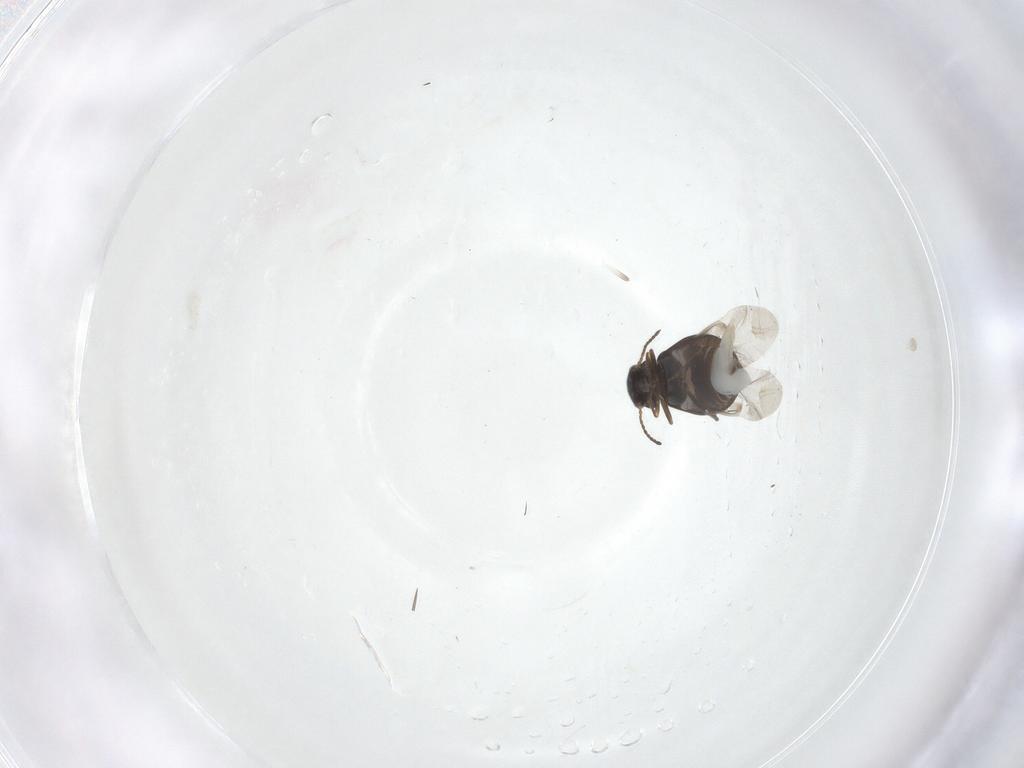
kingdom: Animalia
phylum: Arthropoda
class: Insecta
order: Coleoptera
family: Melyridae
